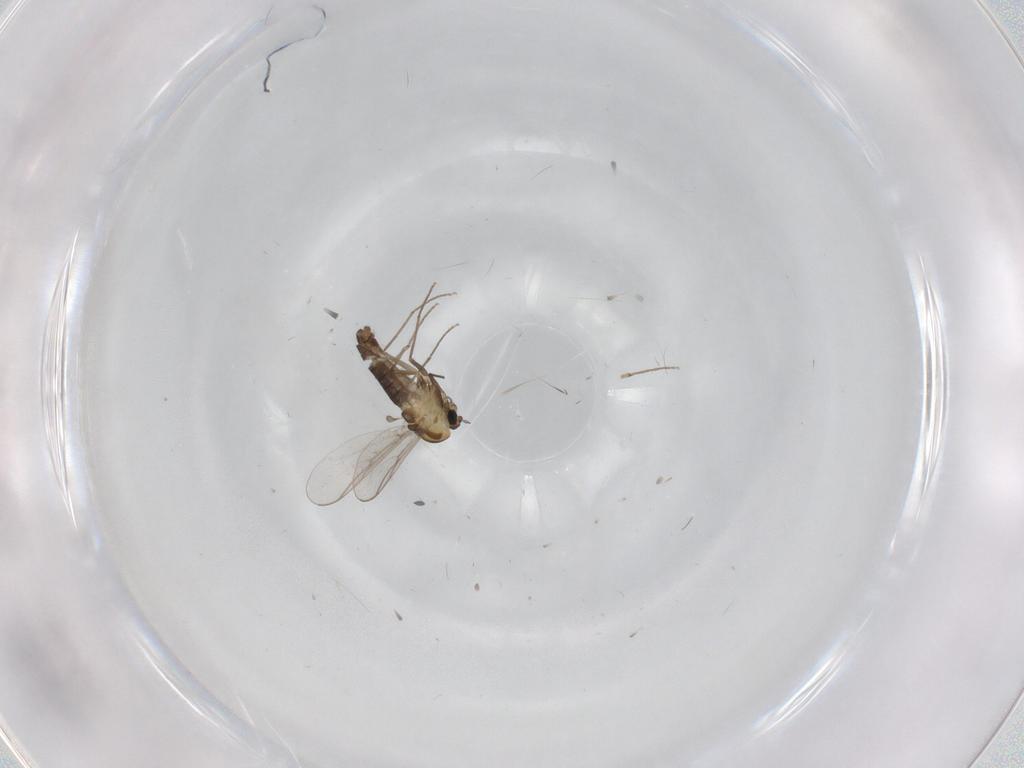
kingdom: Animalia
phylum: Arthropoda
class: Insecta
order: Diptera
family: Chironomidae
